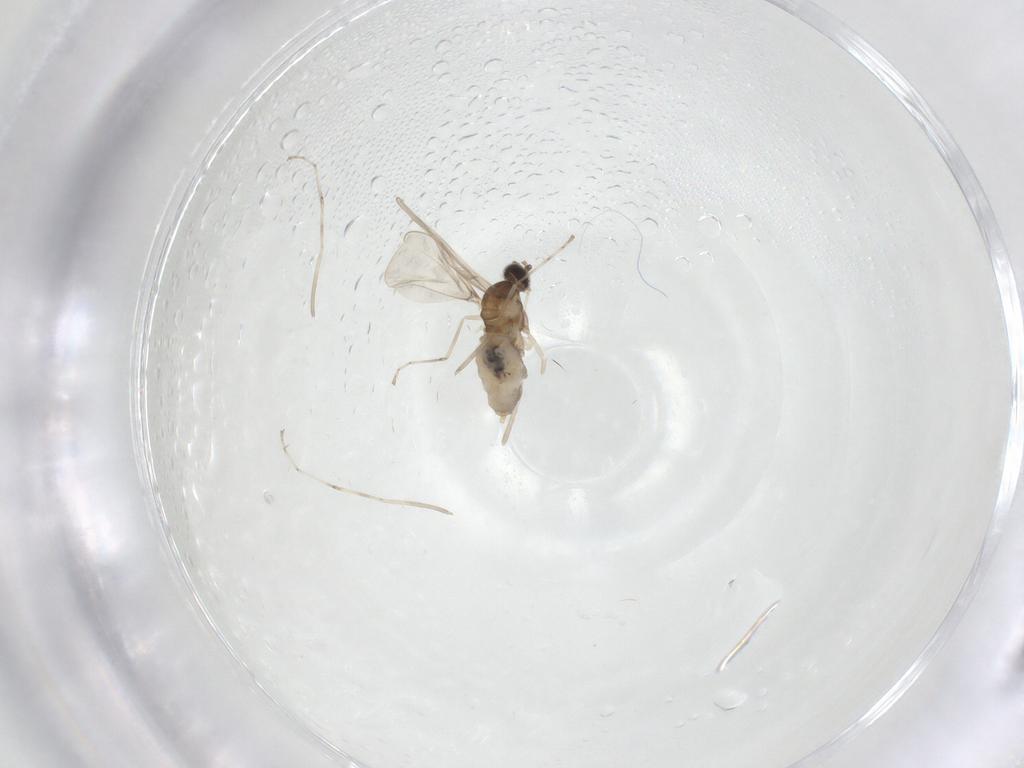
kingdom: Animalia
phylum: Arthropoda
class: Insecta
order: Diptera
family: Cecidomyiidae
